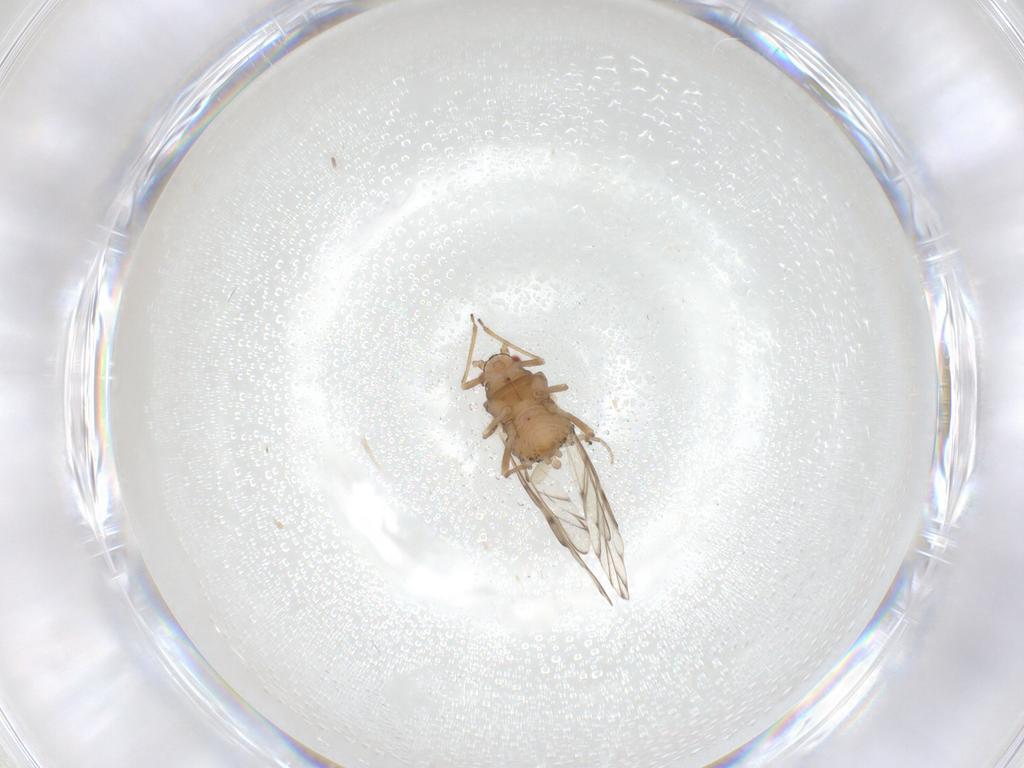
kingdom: Animalia
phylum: Arthropoda
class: Insecta
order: Hemiptera
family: Aphididae
